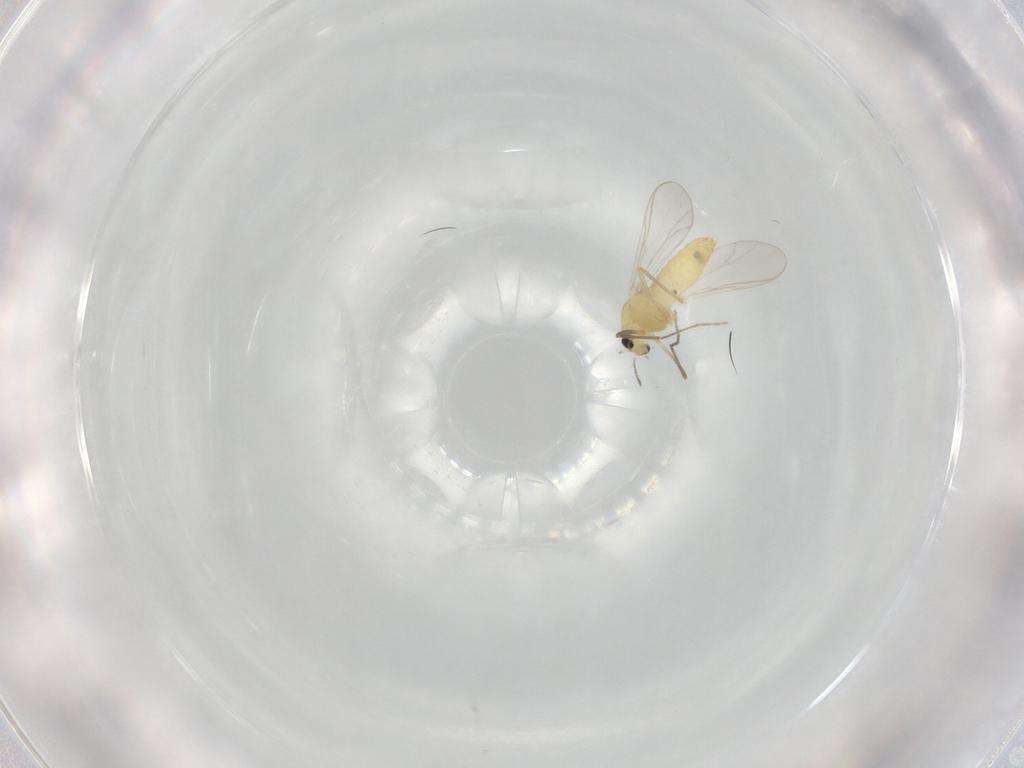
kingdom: Animalia
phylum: Arthropoda
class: Insecta
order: Diptera
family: Chironomidae
